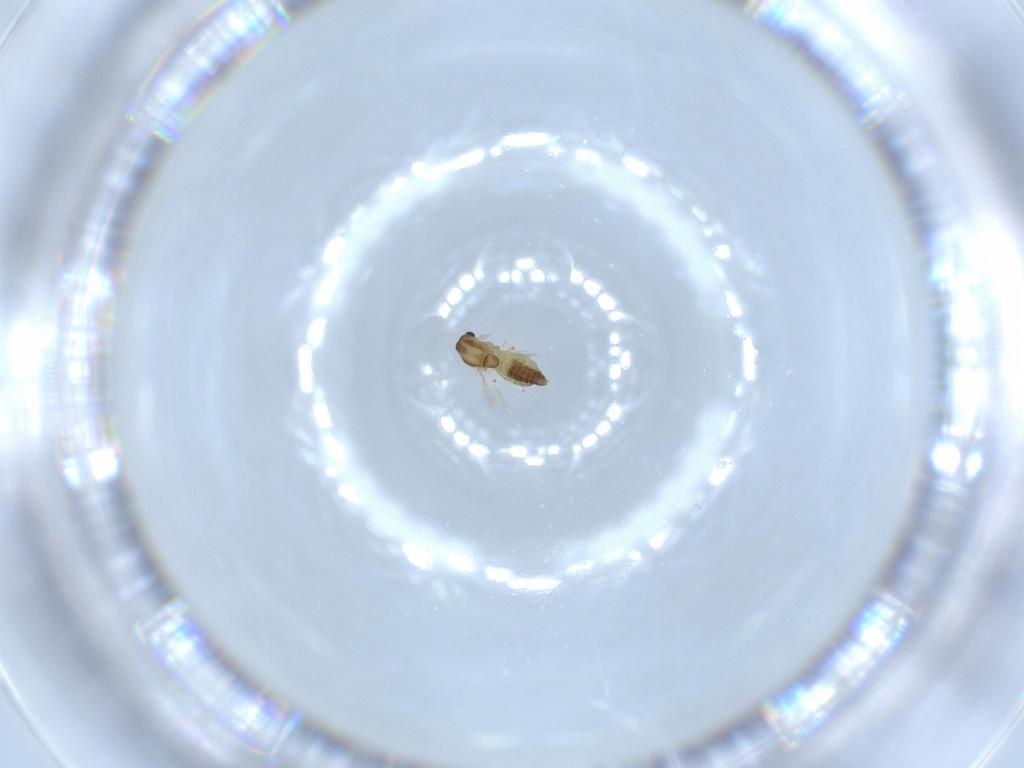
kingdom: Animalia
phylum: Arthropoda
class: Insecta
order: Diptera
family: Chironomidae
